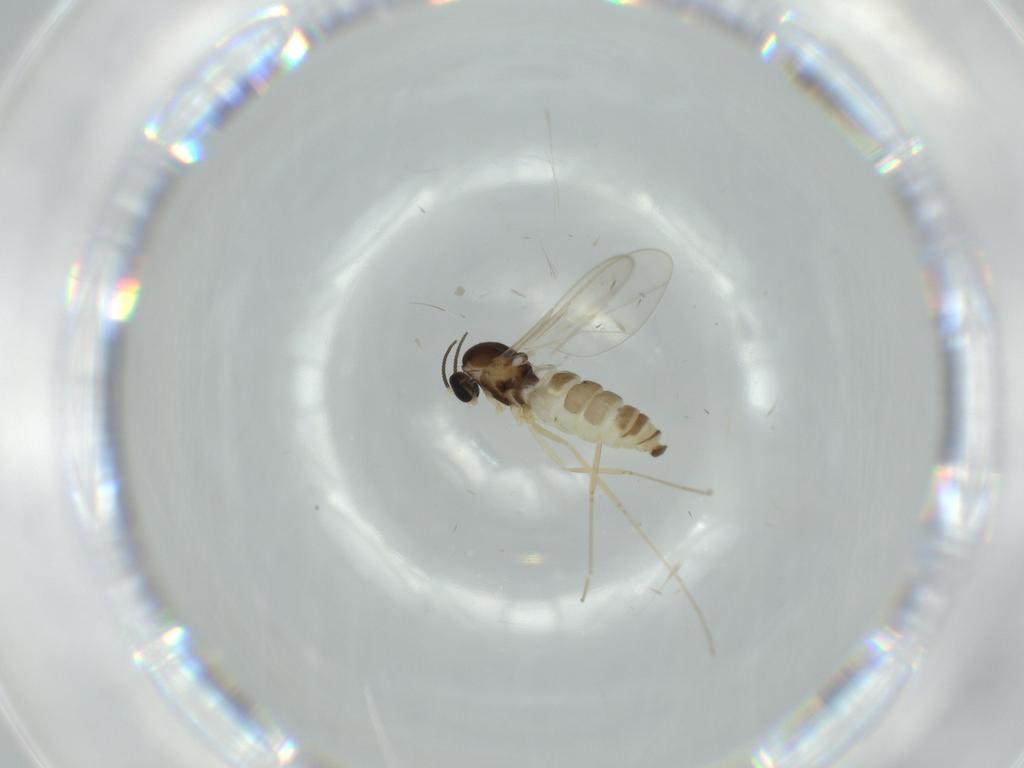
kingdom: Animalia
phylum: Arthropoda
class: Insecta
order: Diptera
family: Cecidomyiidae
